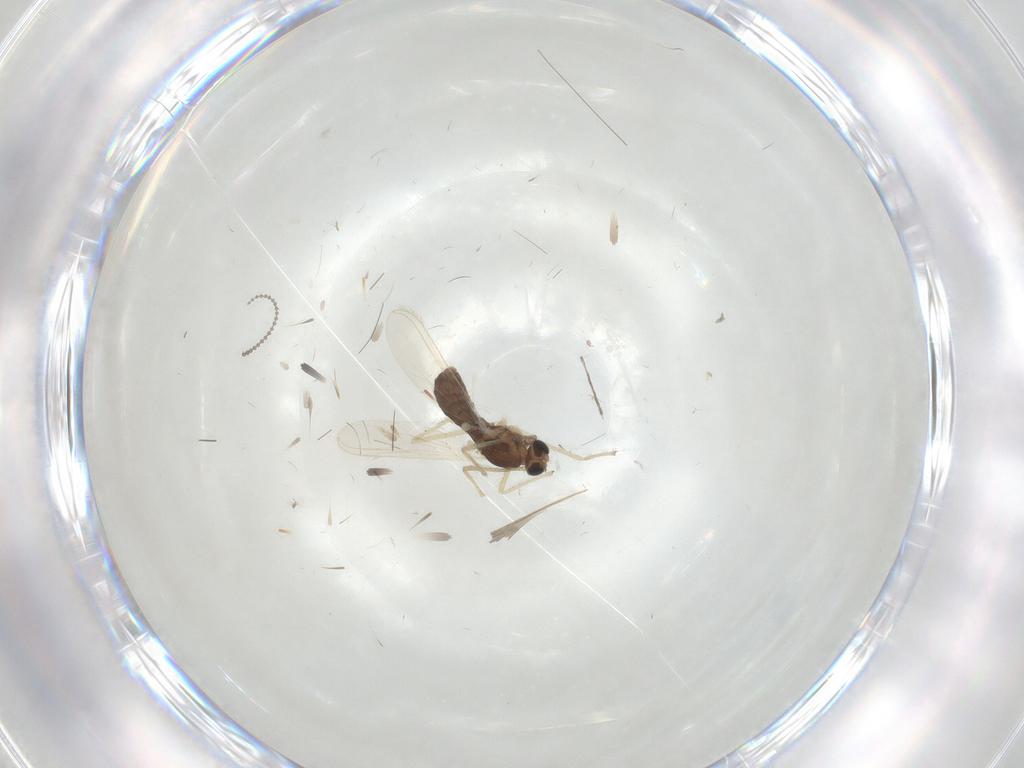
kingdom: Animalia
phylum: Arthropoda
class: Insecta
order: Diptera
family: Chironomidae
